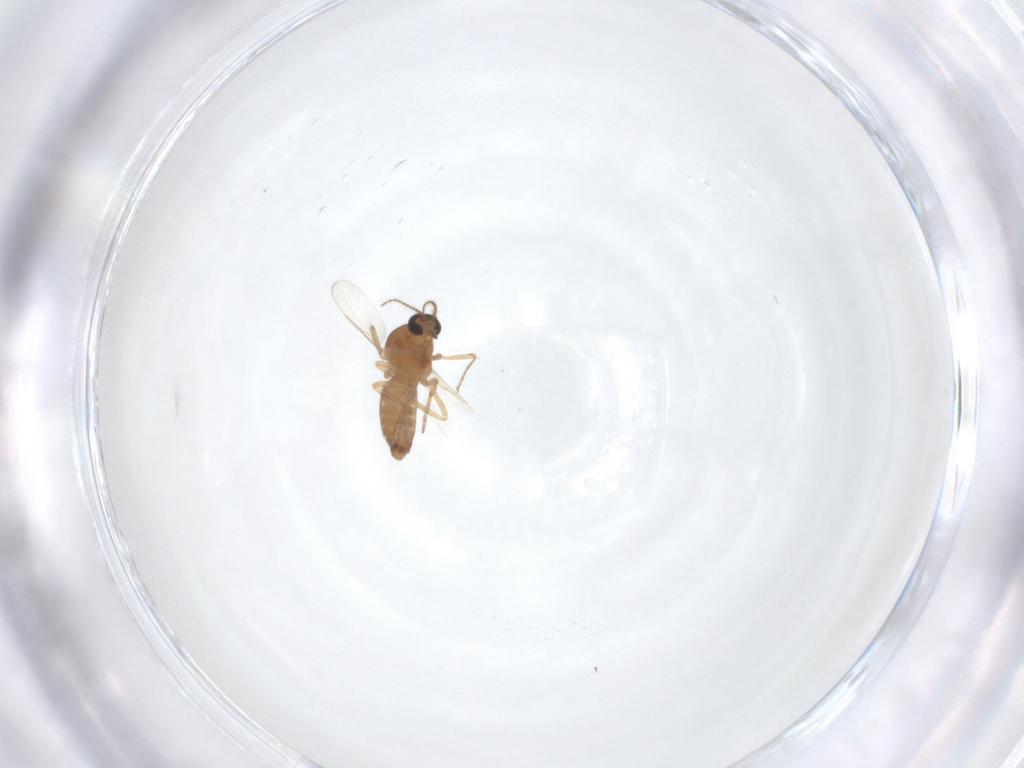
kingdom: Animalia
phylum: Arthropoda
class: Insecta
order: Diptera
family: Ceratopogonidae
